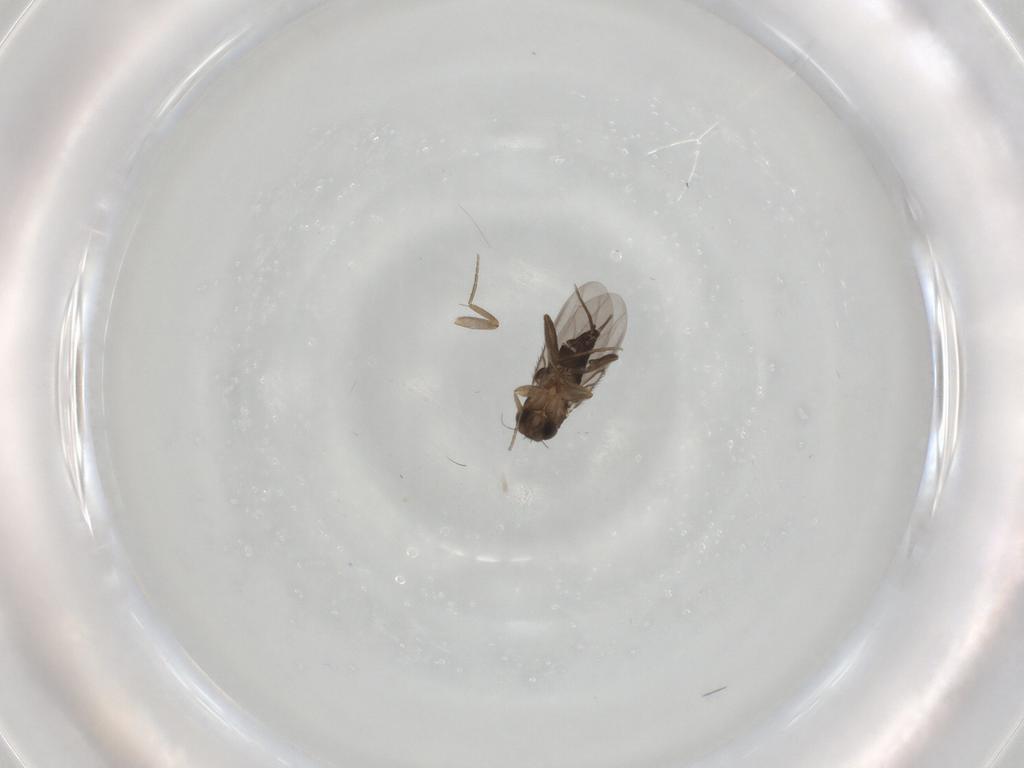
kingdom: Animalia
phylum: Arthropoda
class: Insecta
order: Diptera
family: Phoridae
